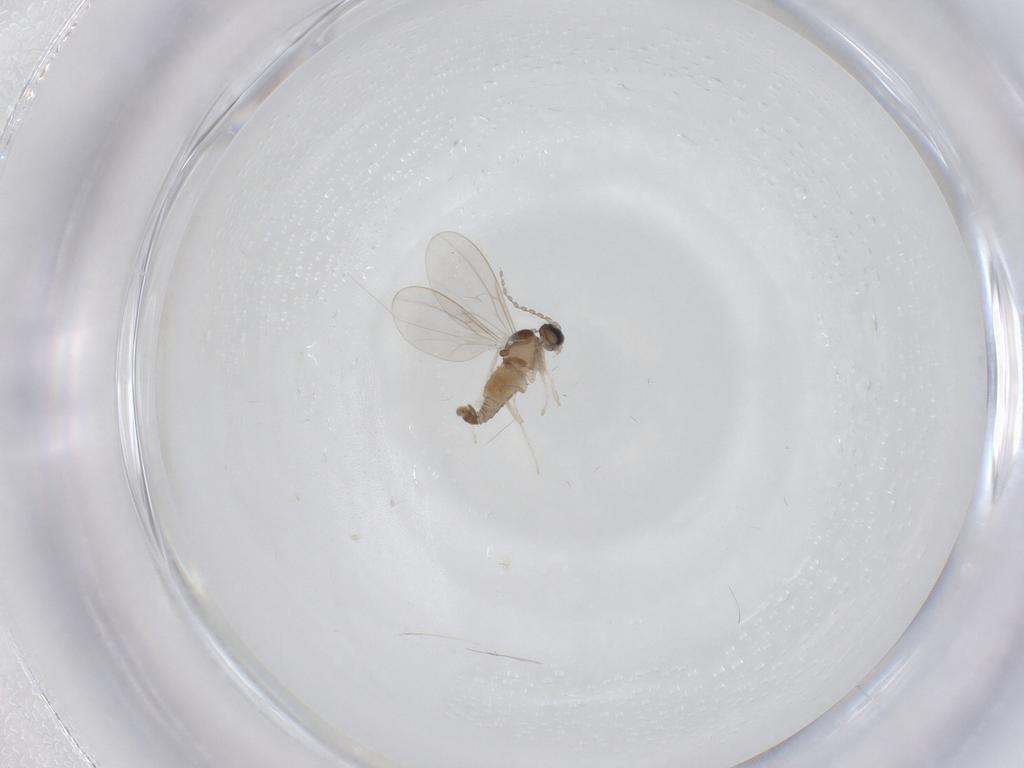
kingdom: Animalia
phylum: Arthropoda
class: Insecta
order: Diptera
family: Cecidomyiidae
